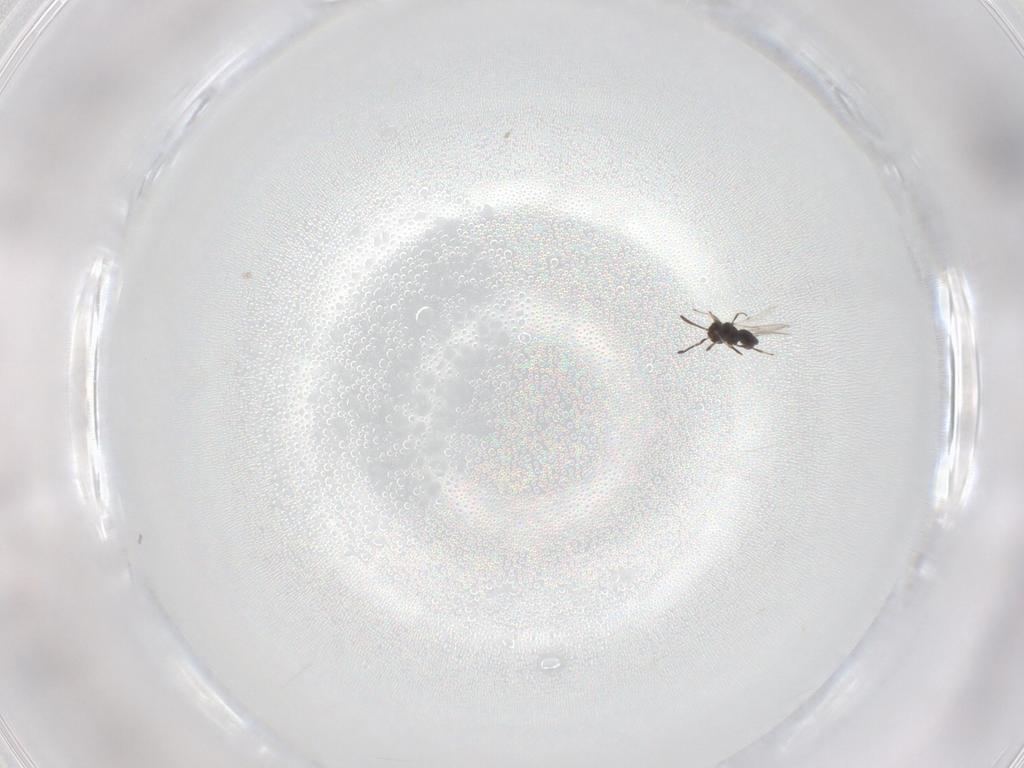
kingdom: Animalia
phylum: Arthropoda
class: Insecta
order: Hymenoptera
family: Scelionidae
